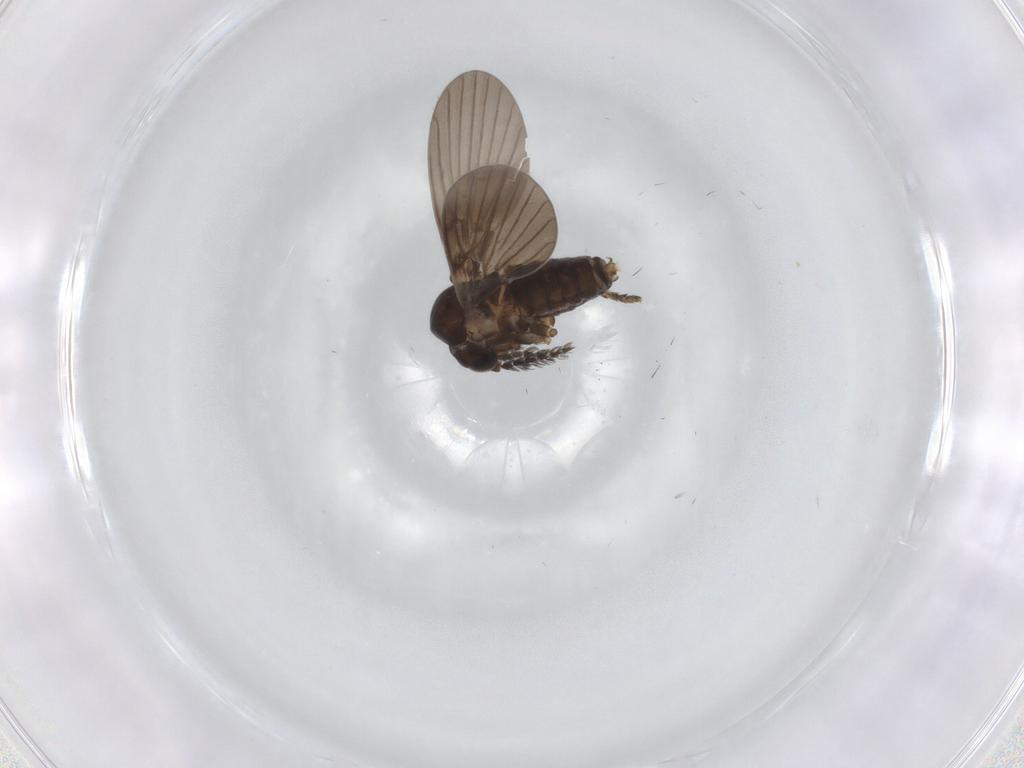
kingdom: Animalia
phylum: Arthropoda
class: Insecta
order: Diptera
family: Psychodidae
